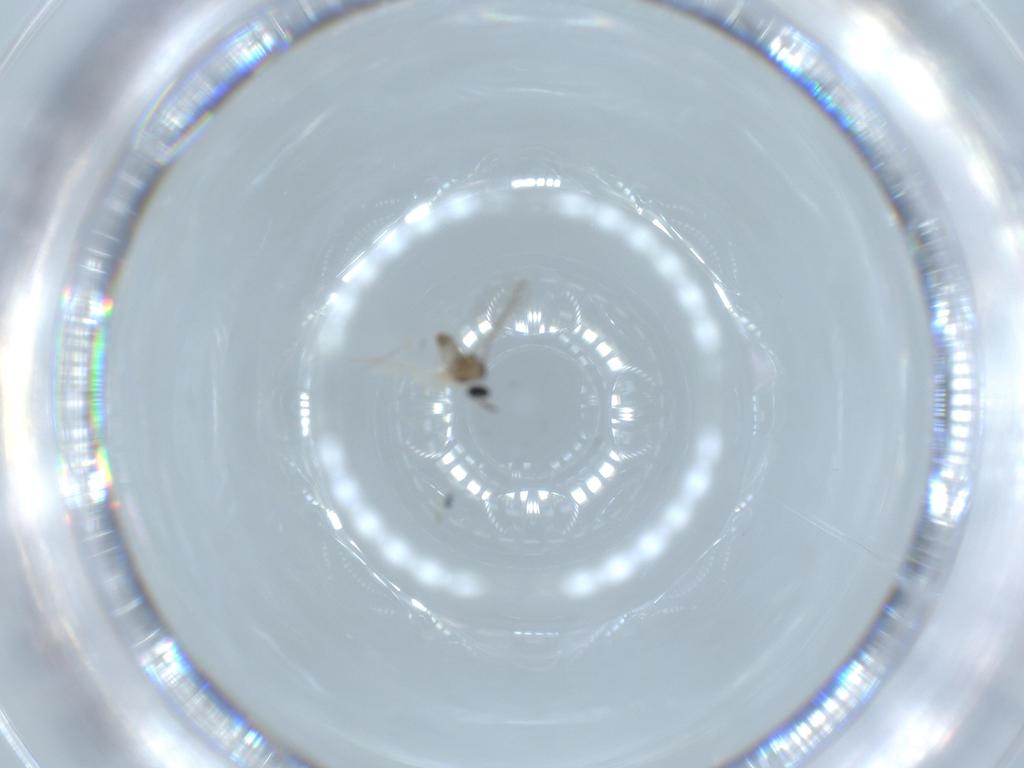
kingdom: Animalia
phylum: Arthropoda
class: Insecta
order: Diptera
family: Cecidomyiidae
